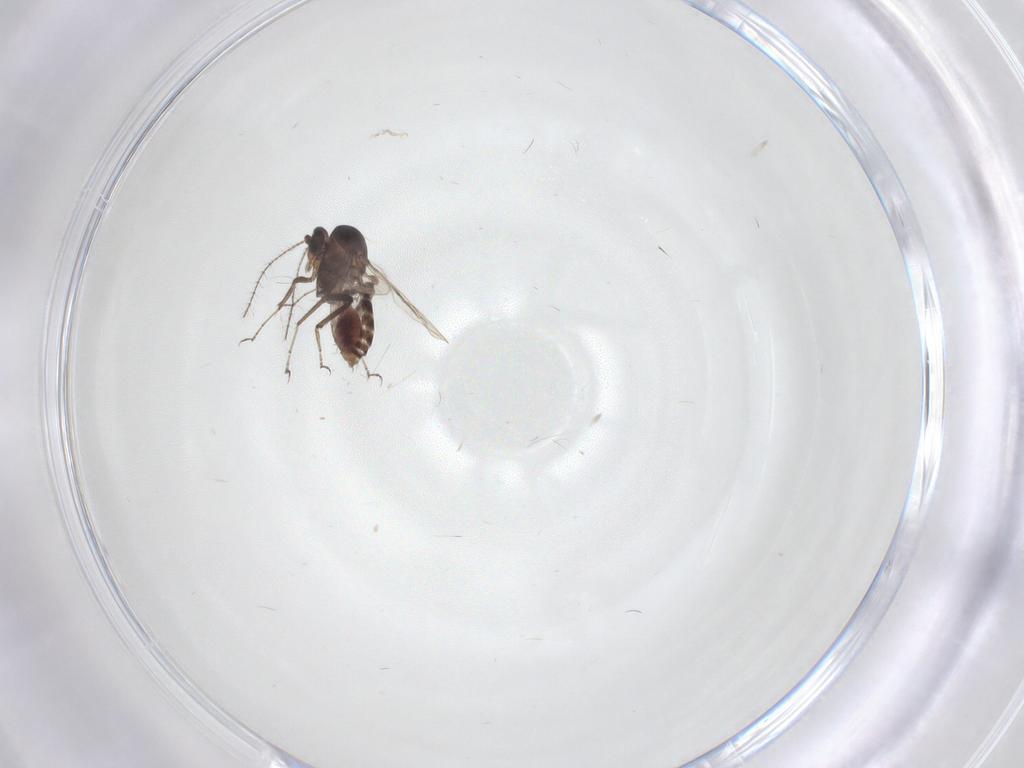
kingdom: Animalia
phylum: Arthropoda
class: Insecta
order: Diptera
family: Ceratopogonidae
